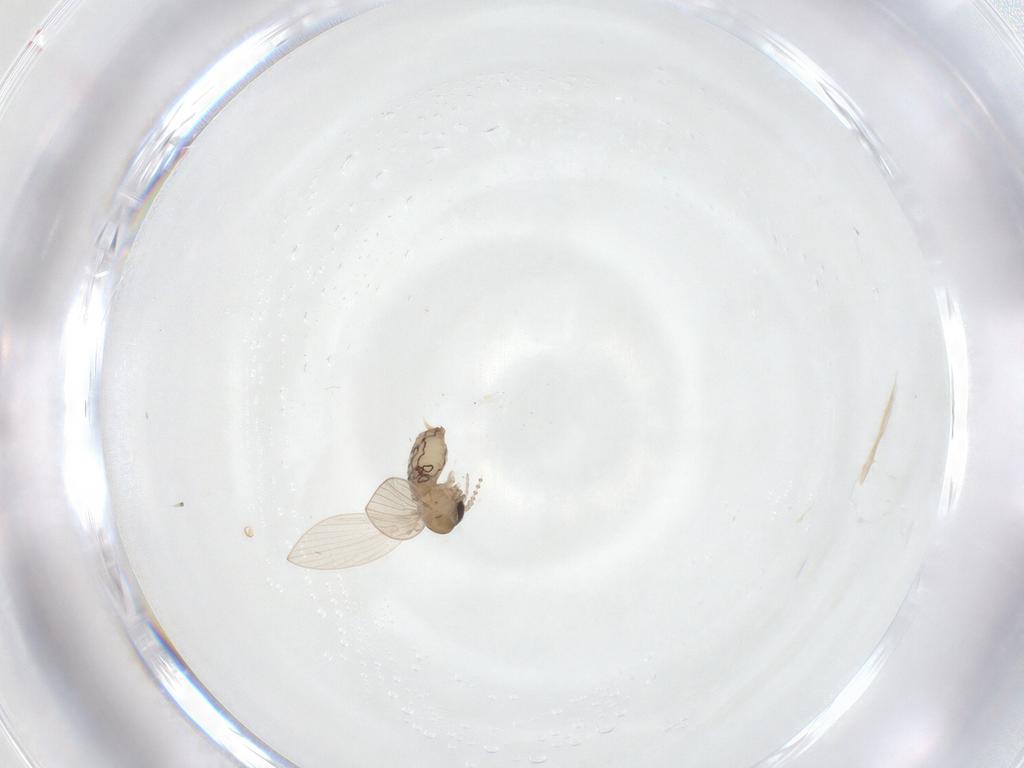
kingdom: Animalia
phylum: Arthropoda
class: Insecta
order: Diptera
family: Psychodidae
